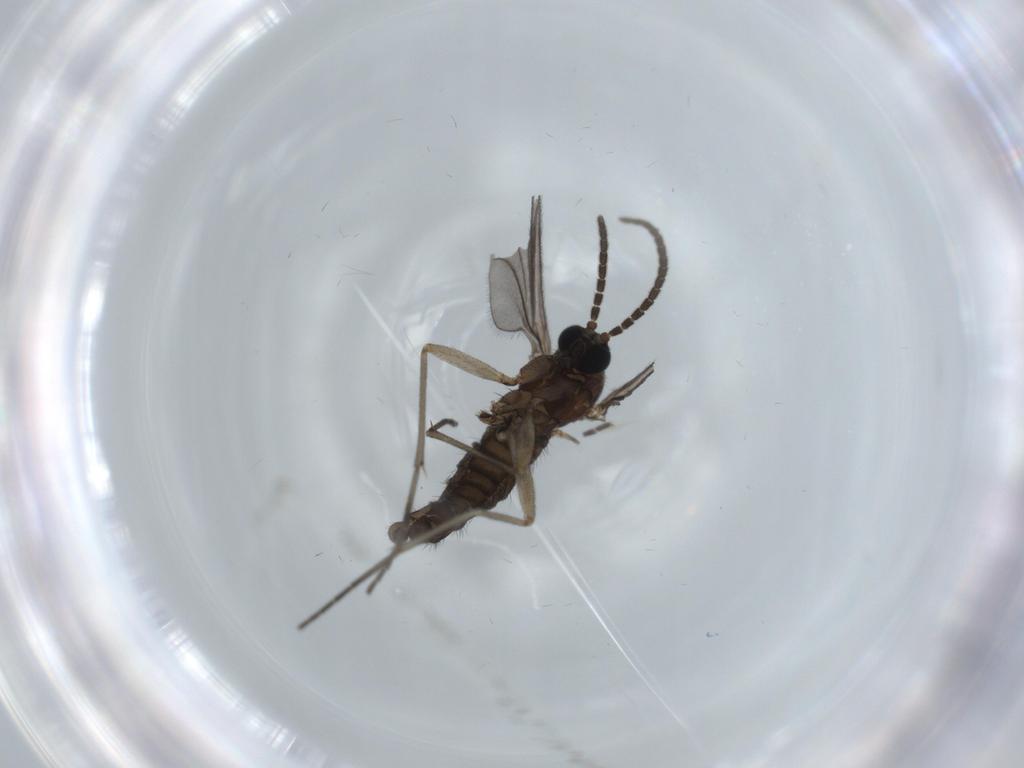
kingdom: Animalia
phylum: Arthropoda
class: Insecta
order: Diptera
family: Sciaridae
